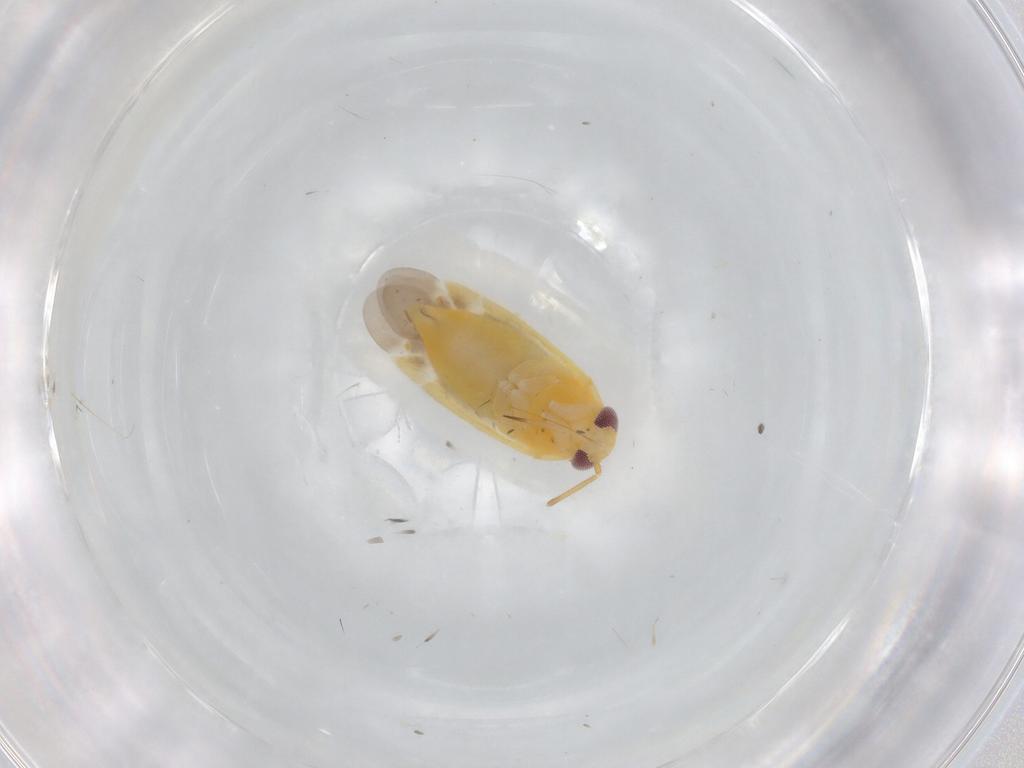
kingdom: Animalia
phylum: Arthropoda
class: Insecta
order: Hemiptera
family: Miridae
